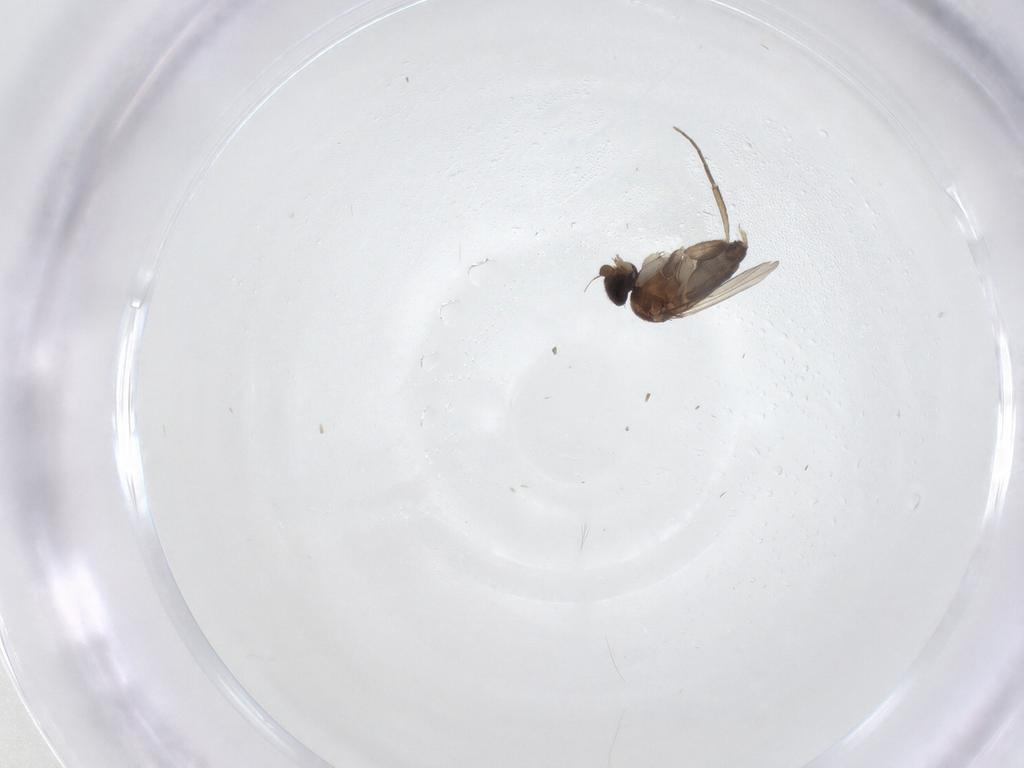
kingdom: Animalia
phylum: Arthropoda
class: Insecta
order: Diptera
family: Phoridae
